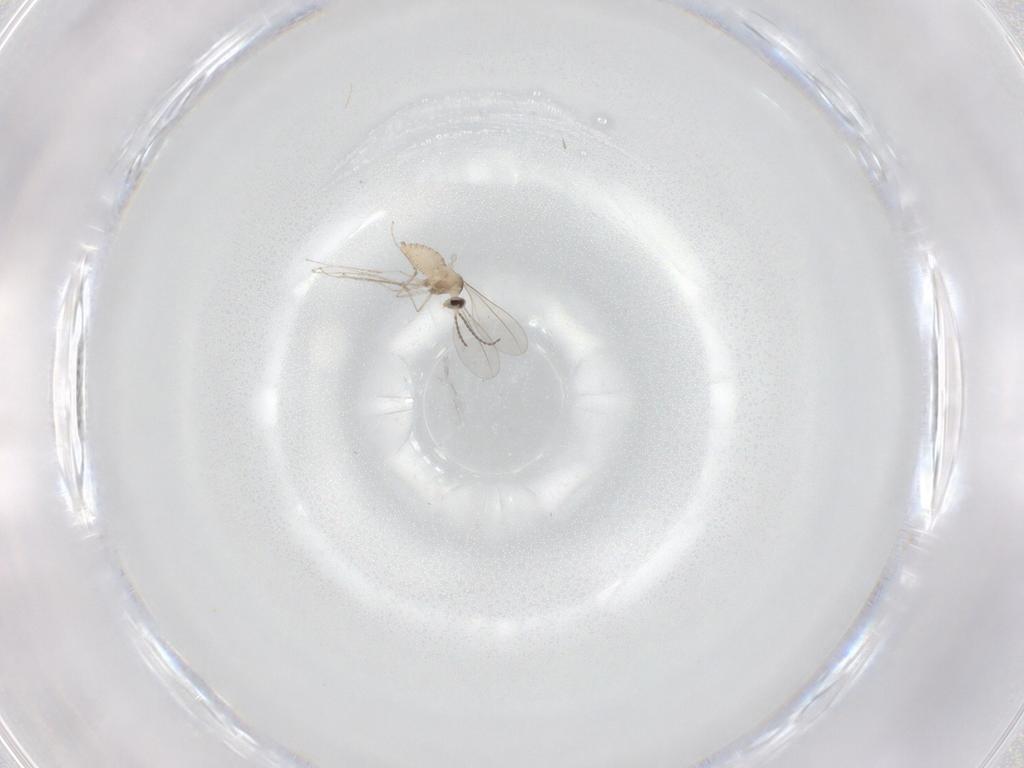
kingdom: Animalia
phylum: Arthropoda
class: Insecta
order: Diptera
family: Cecidomyiidae
